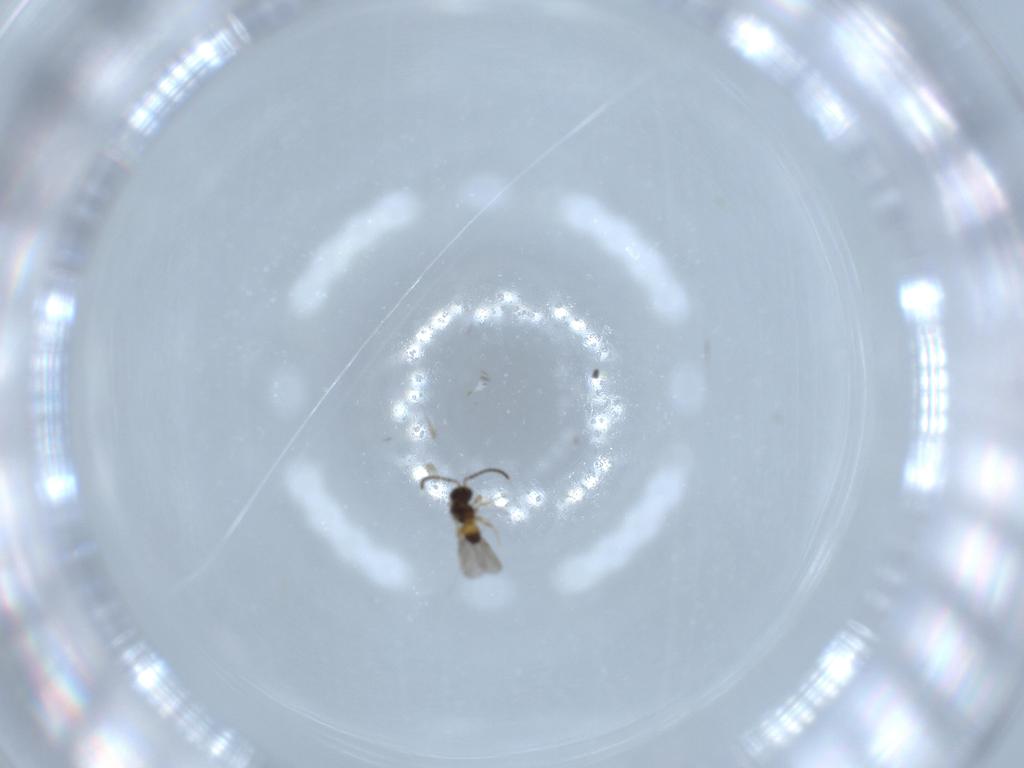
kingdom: Animalia
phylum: Arthropoda
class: Insecta
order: Hymenoptera
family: Ceraphronidae
